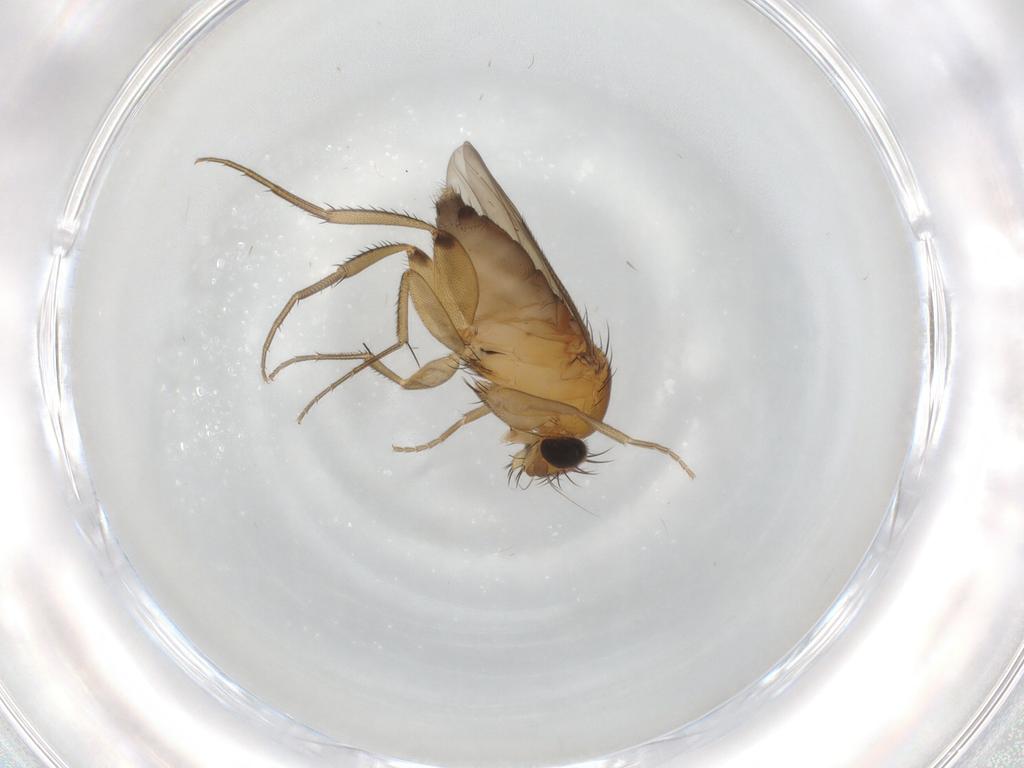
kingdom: Animalia
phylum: Arthropoda
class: Insecta
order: Diptera
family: Phoridae
